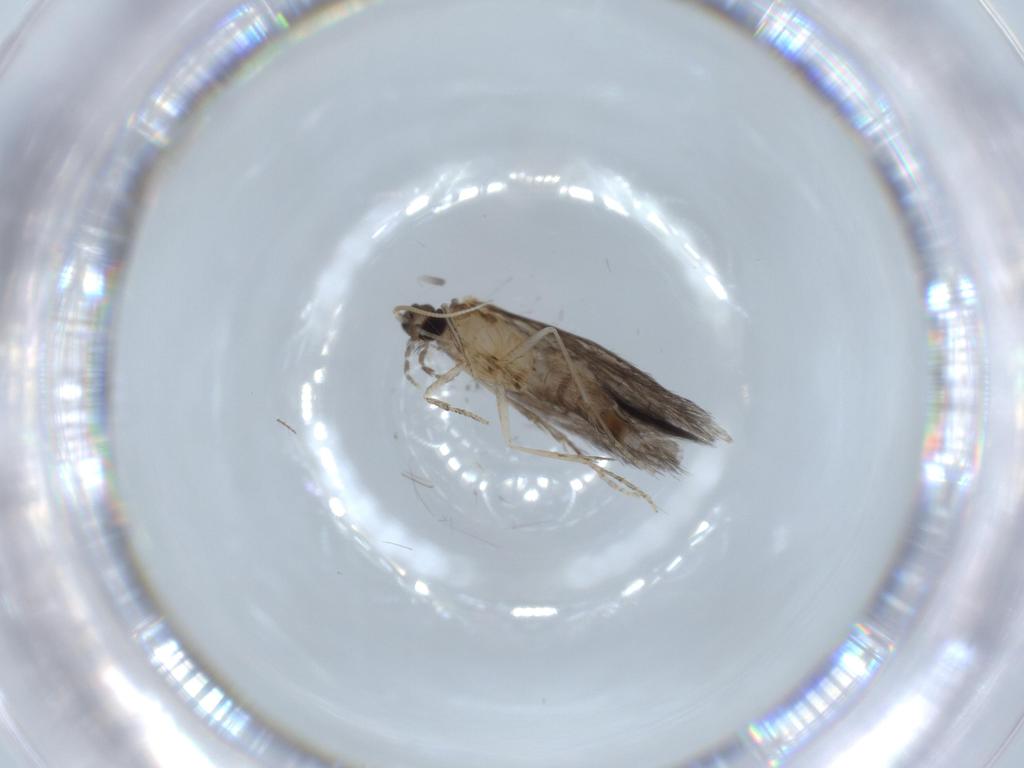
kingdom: Animalia
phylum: Arthropoda
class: Insecta
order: Trichoptera
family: Hydroptilidae
